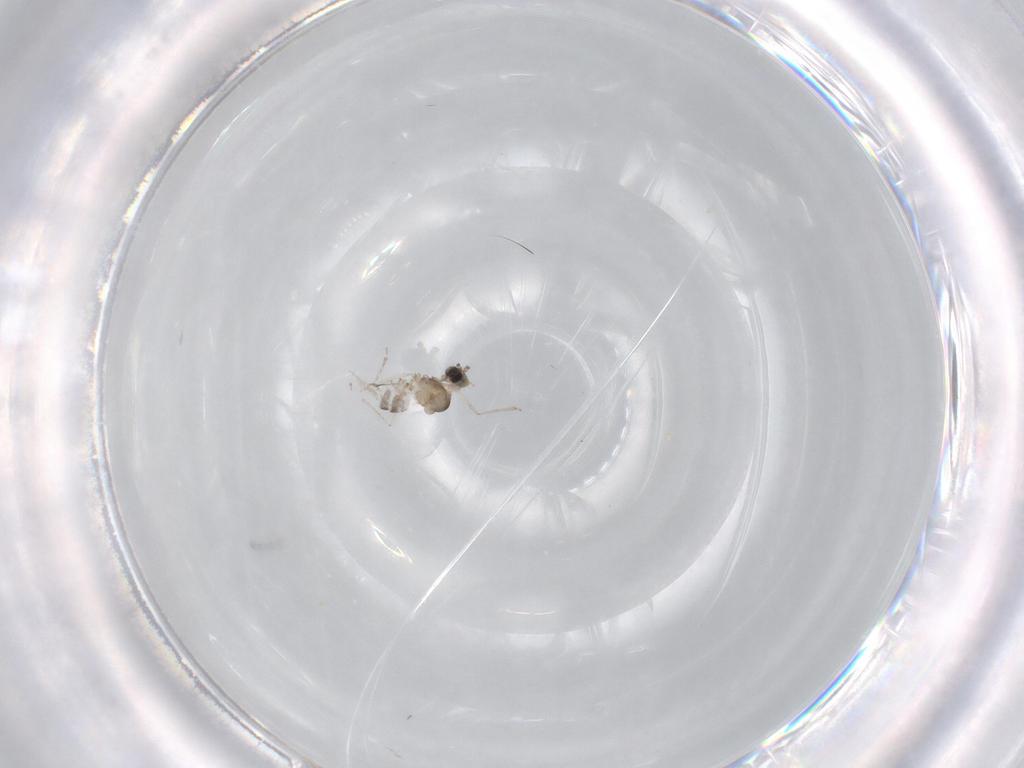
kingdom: Animalia
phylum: Arthropoda
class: Insecta
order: Diptera
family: Cecidomyiidae
